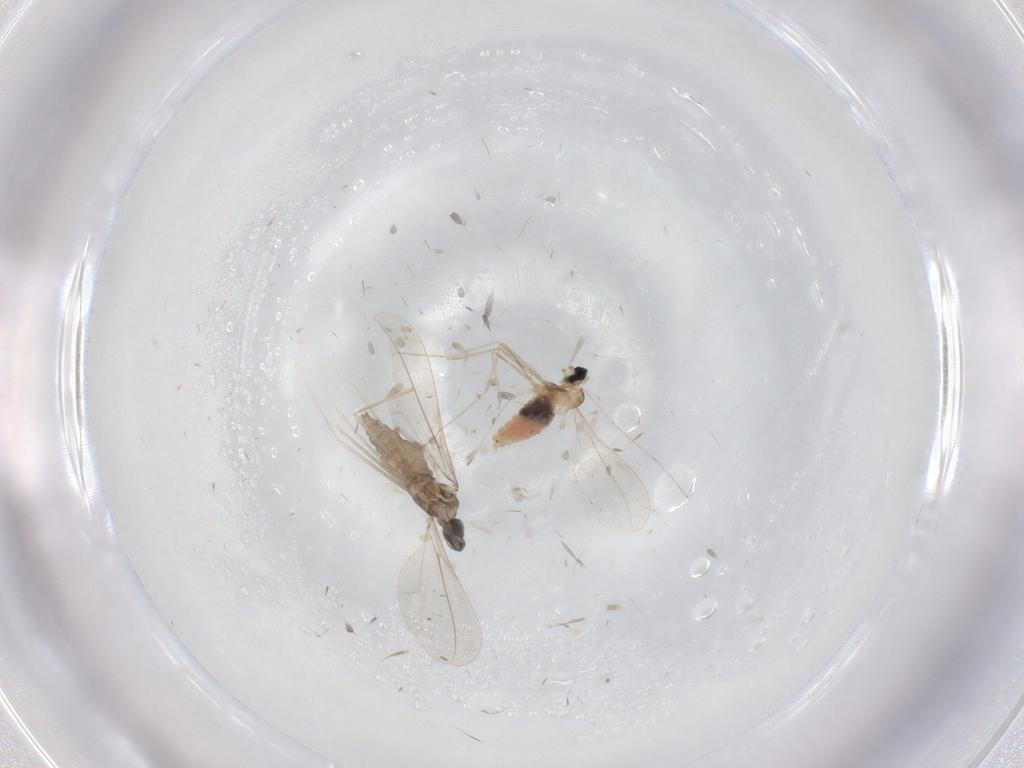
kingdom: Animalia
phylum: Arthropoda
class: Insecta
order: Diptera
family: Cecidomyiidae
